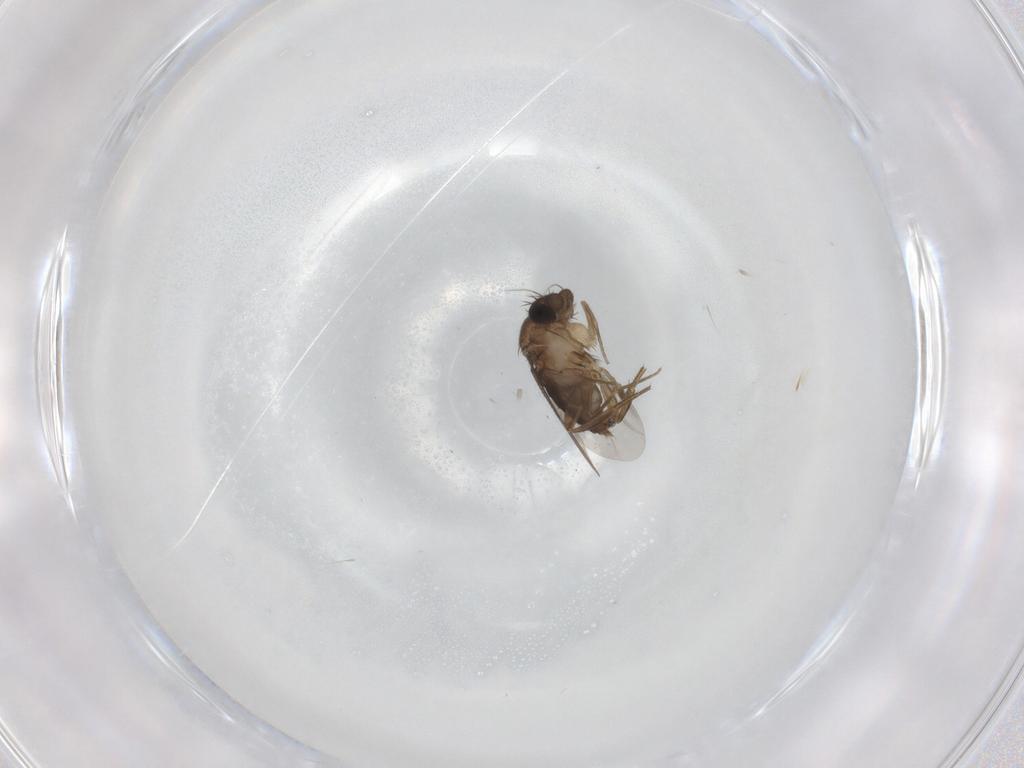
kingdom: Animalia
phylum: Arthropoda
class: Insecta
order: Diptera
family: Phoridae
